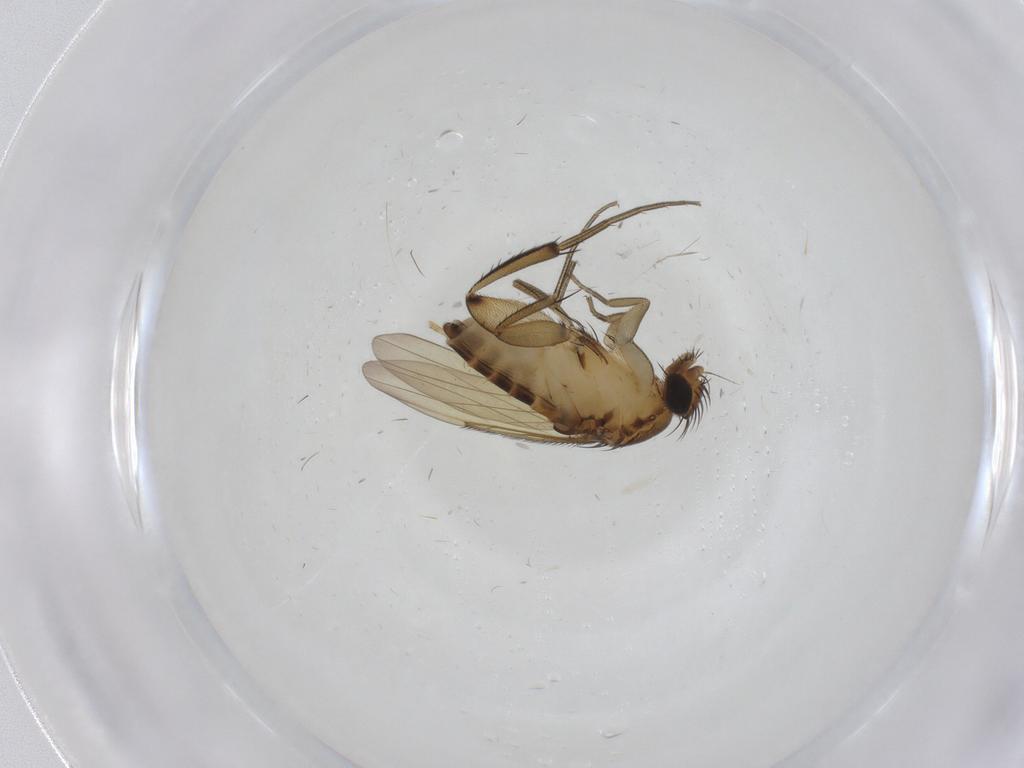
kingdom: Animalia
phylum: Arthropoda
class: Insecta
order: Diptera
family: Phoridae
